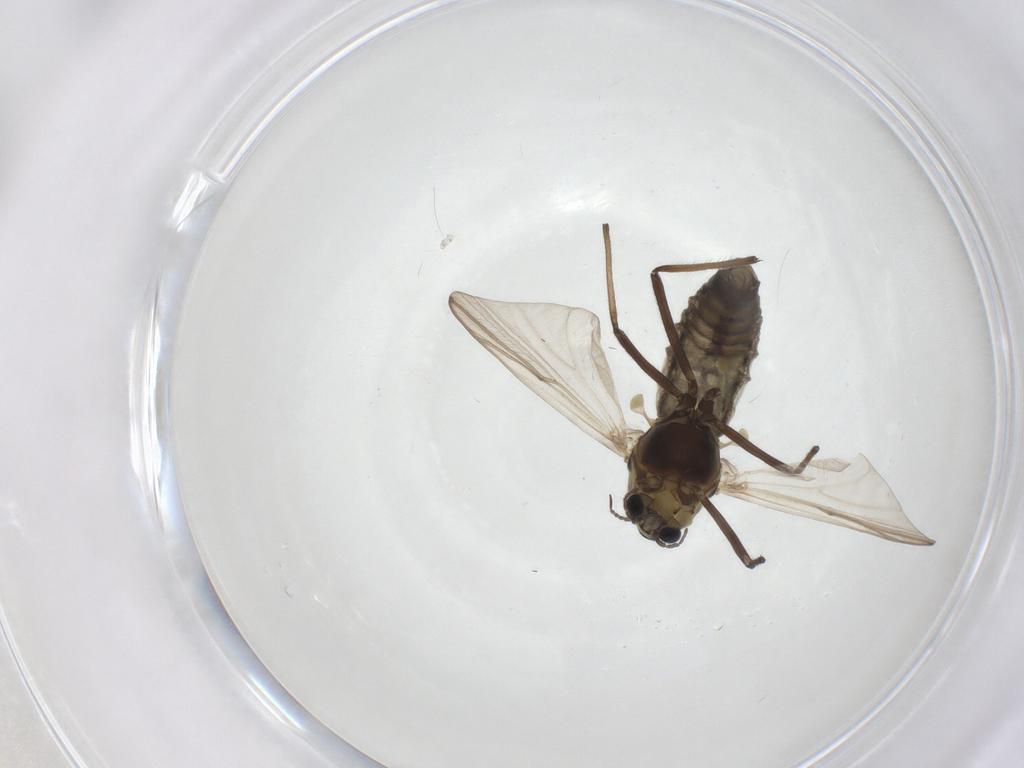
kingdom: Animalia
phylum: Arthropoda
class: Insecta
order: Diptera
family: Chironomidae
